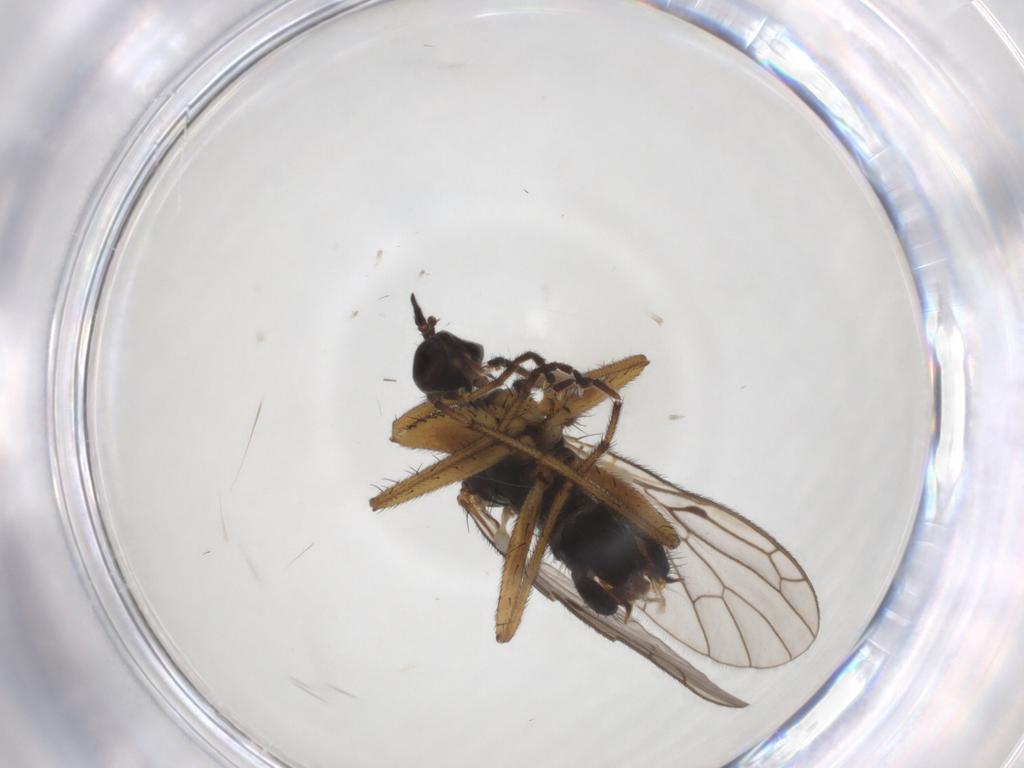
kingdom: Animalia
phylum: Arthropoda
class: Insecta
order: Diptera
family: Empididae
